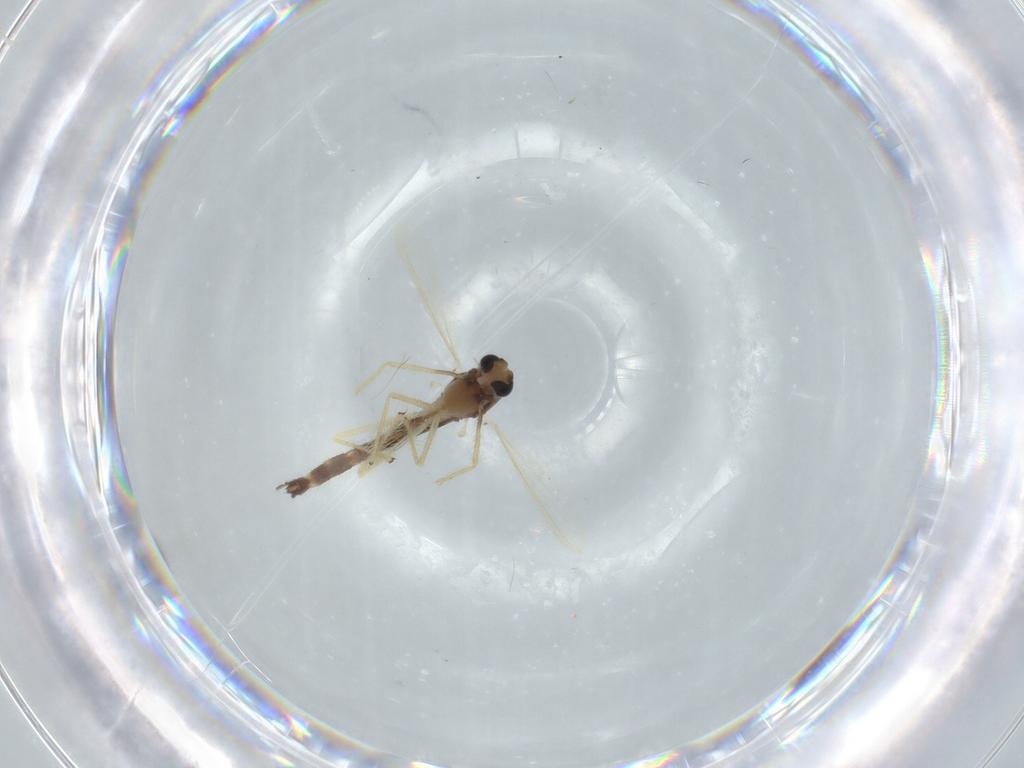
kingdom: Animalia
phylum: Arthropoda
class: Insecta
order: Diptera
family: Chironomidae
